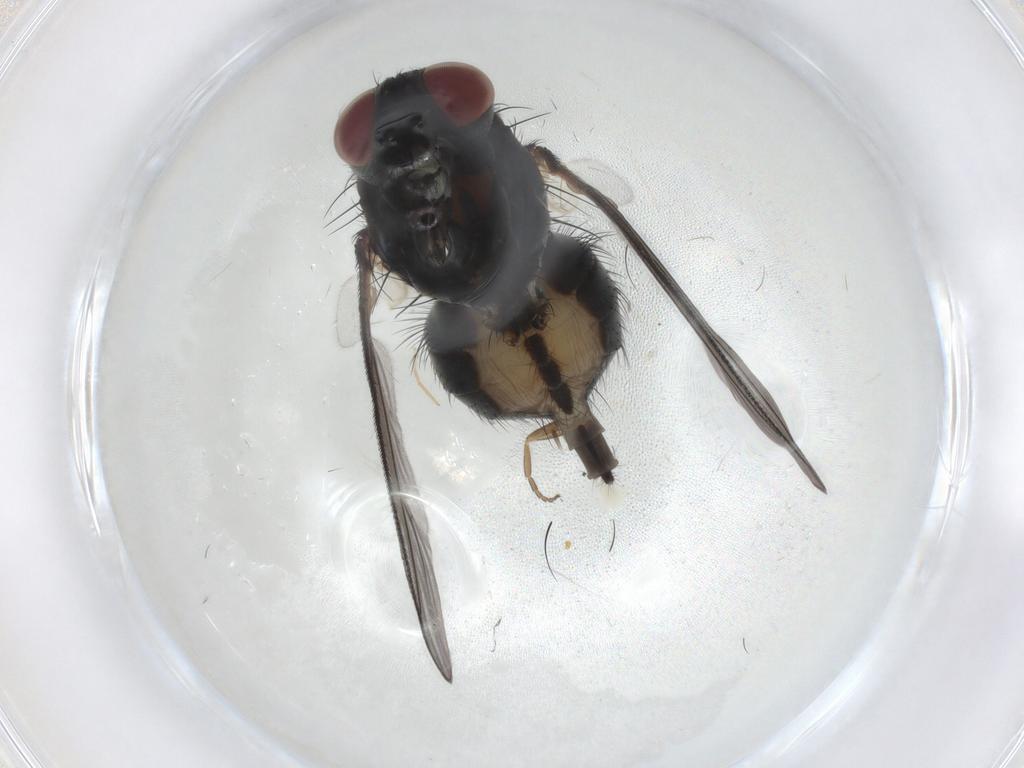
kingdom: Animalia
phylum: Arthropoda
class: Insecta
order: Diptera
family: Muscidae
